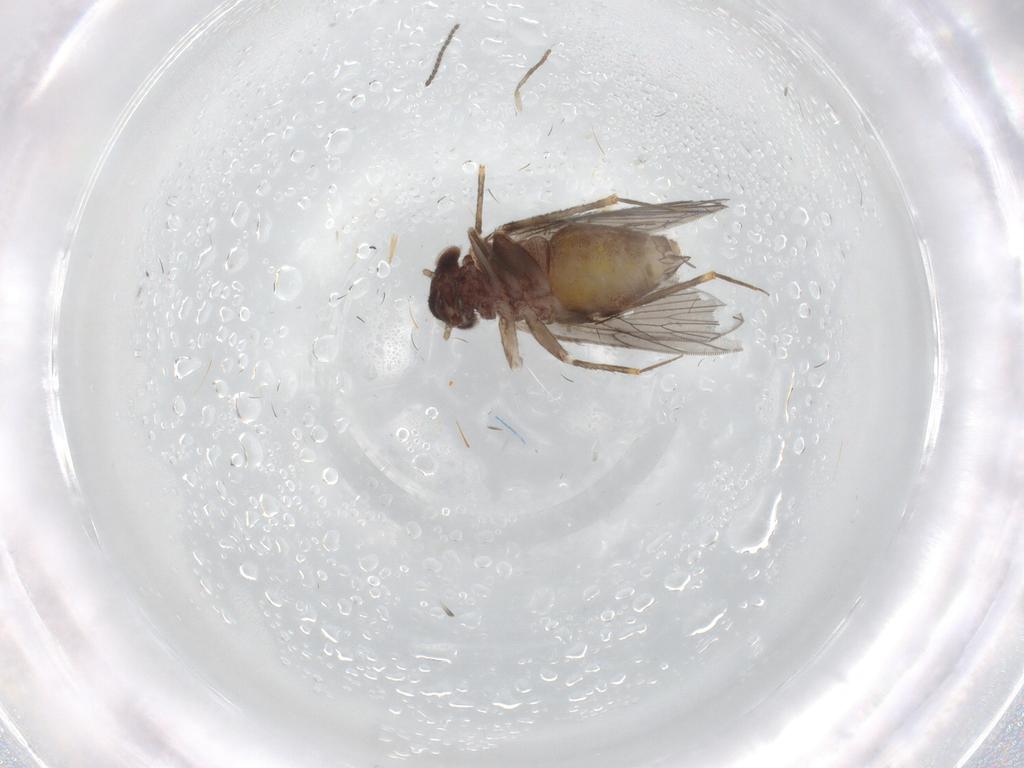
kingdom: Animalia
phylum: Arthropoda
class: Insecta
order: Psocodea
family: Lepidopsocidae
